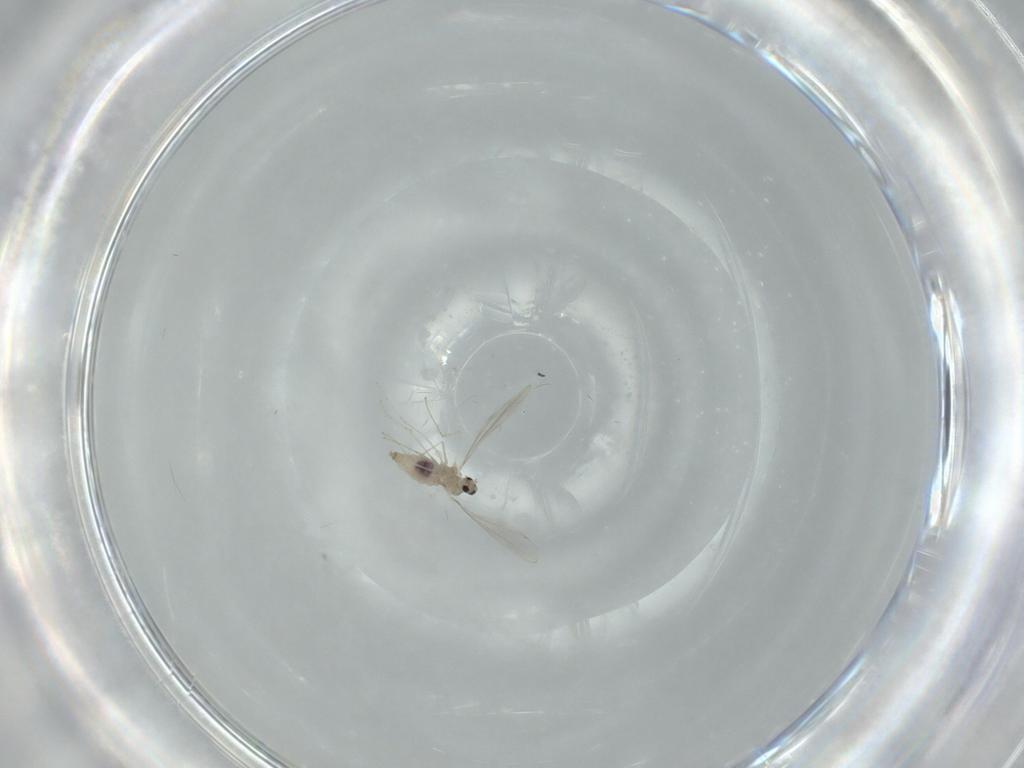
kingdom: Animalia
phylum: Arthropoda
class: Insecta
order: Diptera
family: Cecidomyiidae
